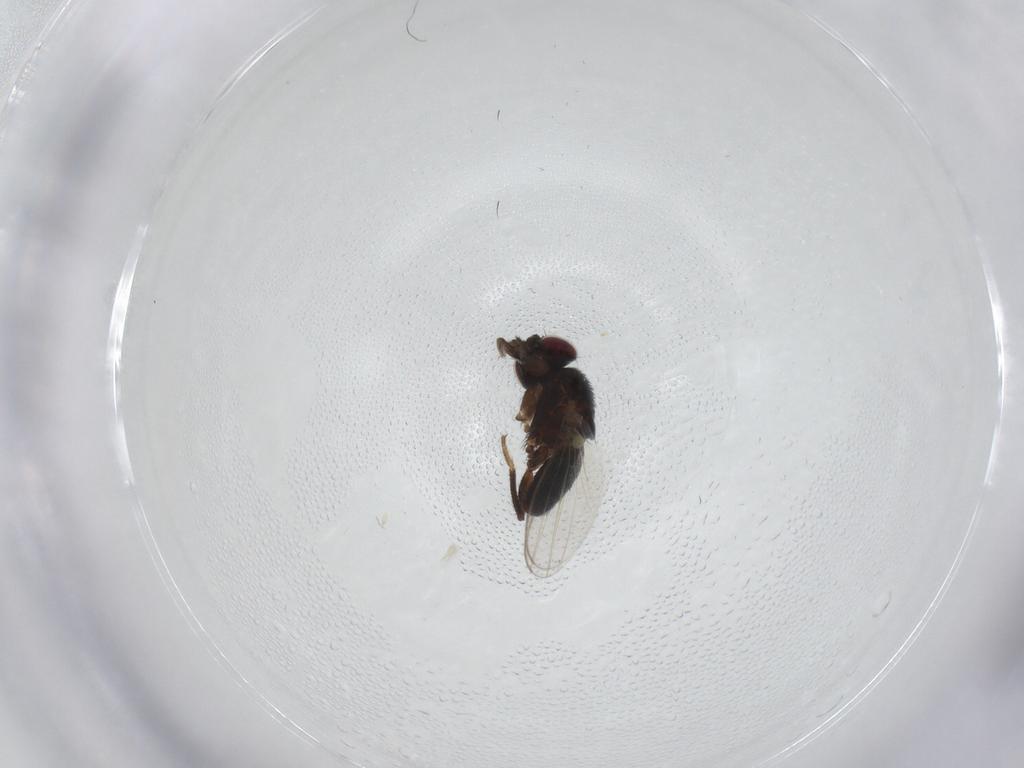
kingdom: Animalia
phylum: Arthropoda
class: Insecta
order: Diptera
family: Milichiidae
